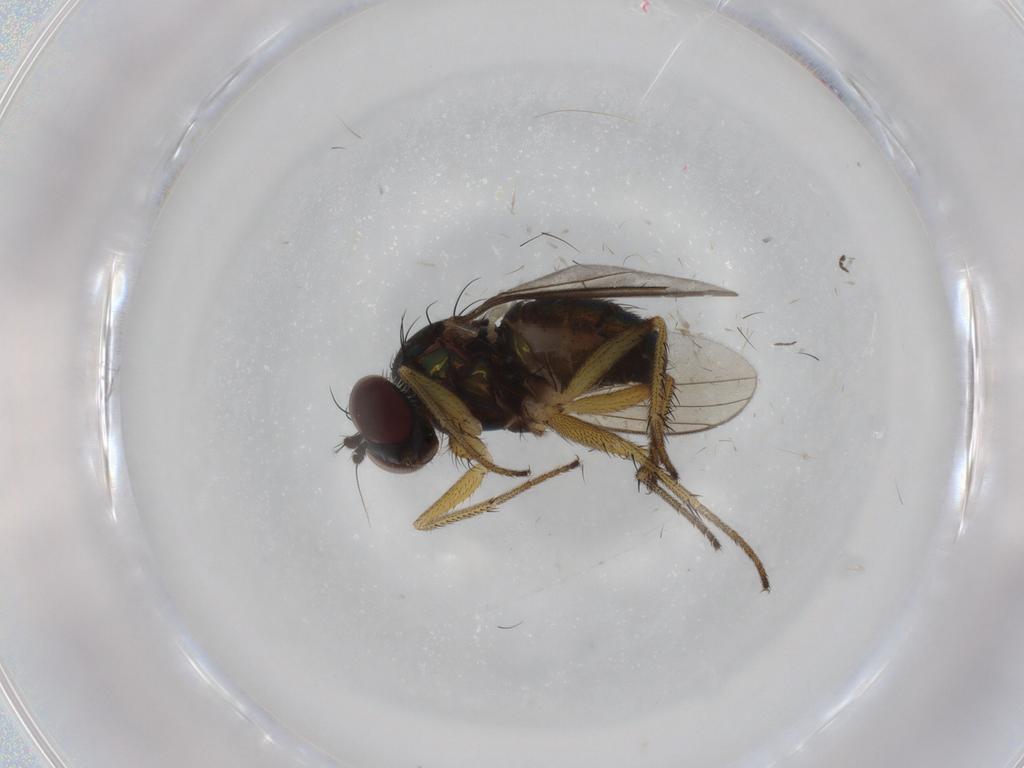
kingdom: Animalia
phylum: Arthropoda
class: Insecta
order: Diptera
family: Dolichopodidae
